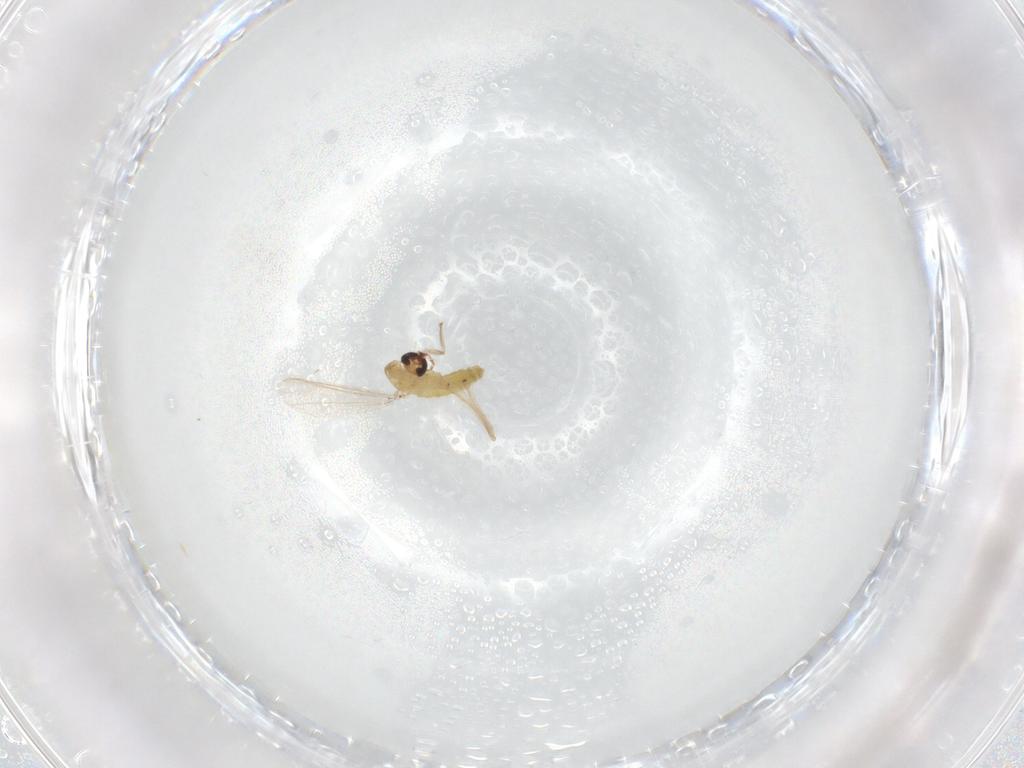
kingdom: Animalia
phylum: Arthropoda
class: Insecta
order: Diptera
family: Chironomidae
